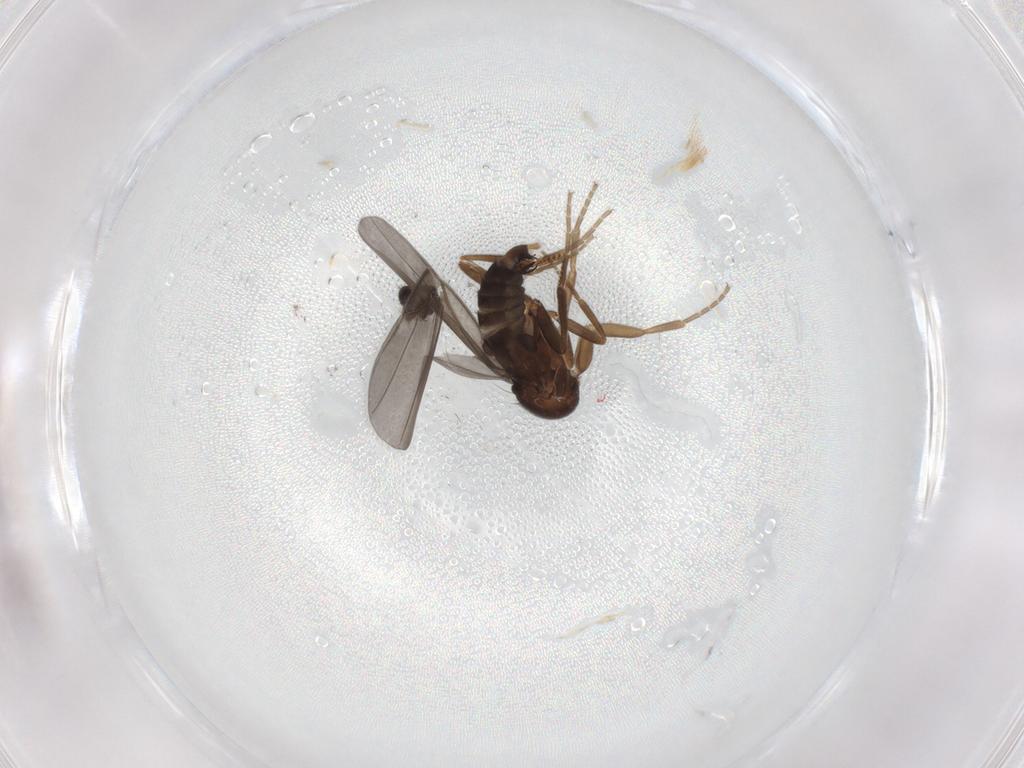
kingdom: Animalia
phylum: Arthropoda
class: Insecta
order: Diptera
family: Phoridae
